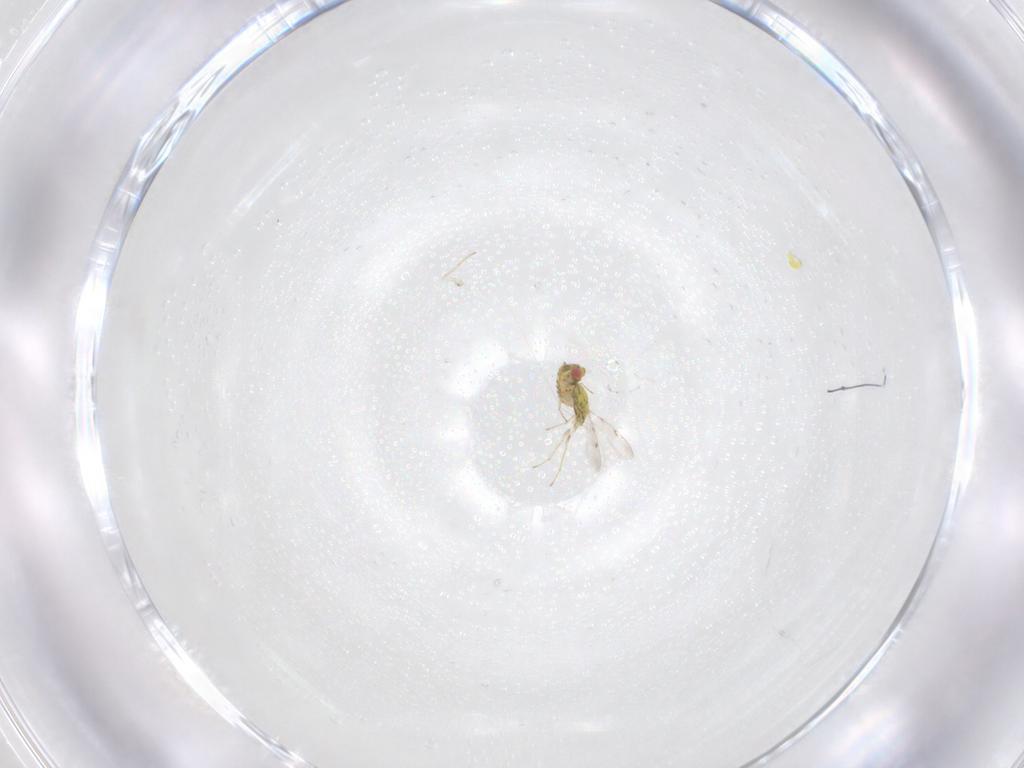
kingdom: Animalia
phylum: Arthropoda
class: Insecta
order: Hymenoptera
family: Eulophidae
